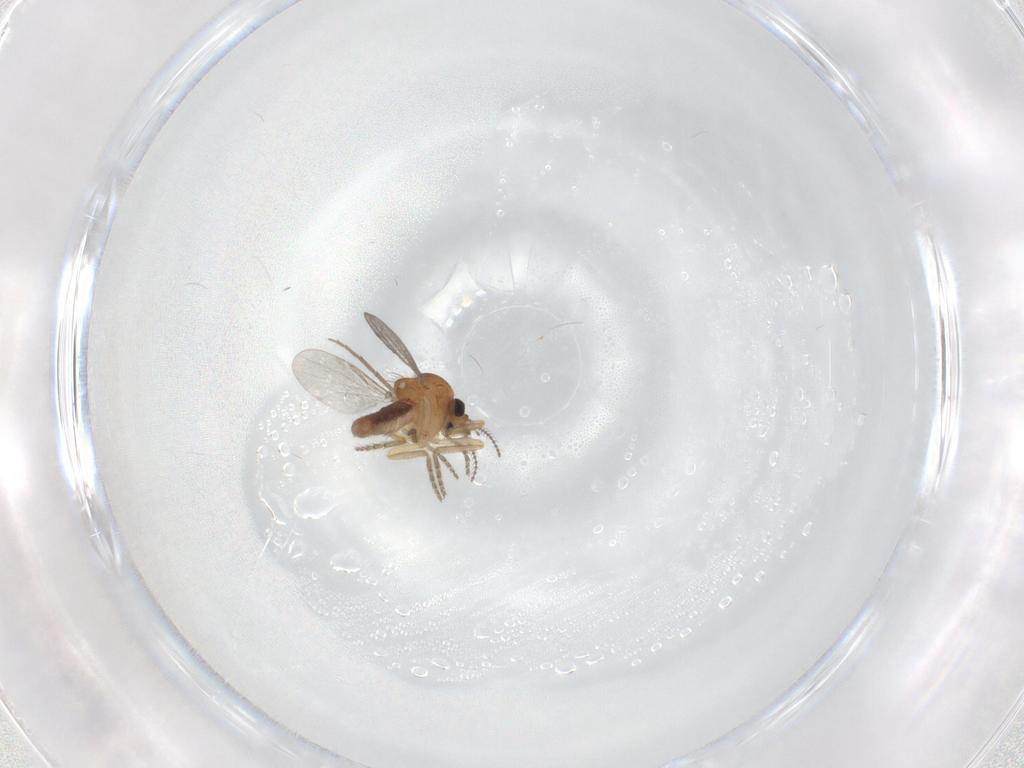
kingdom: Animalia
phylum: Arthropoda
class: Insecta
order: Diptera
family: Ceratopogonidae
